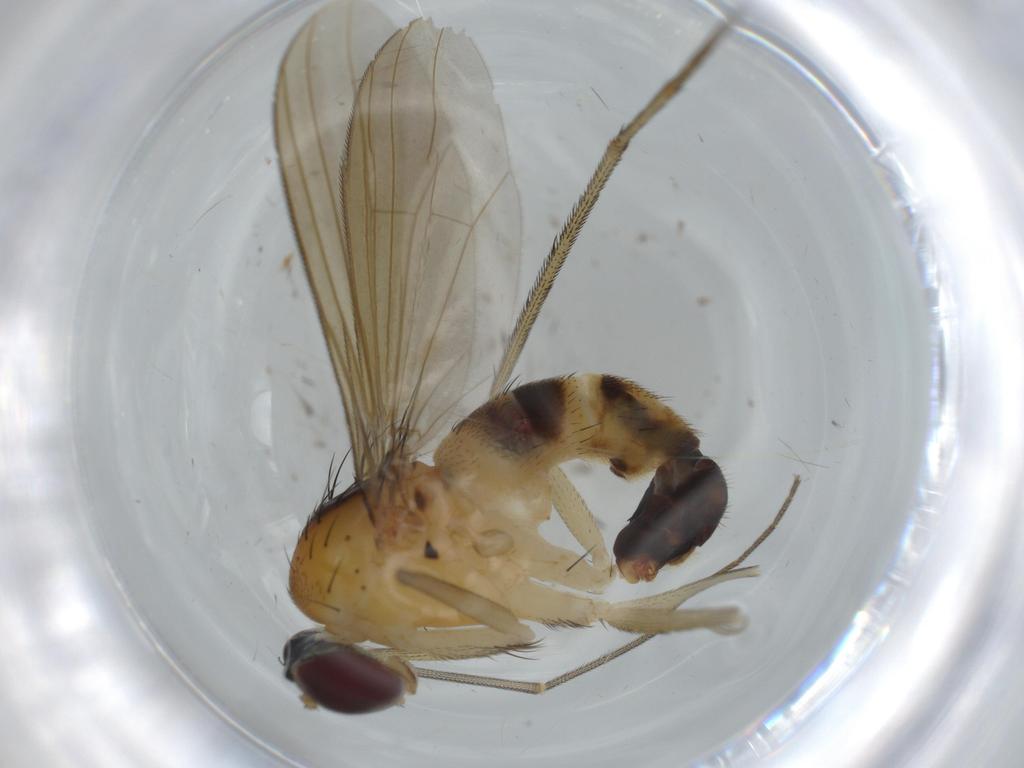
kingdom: Animalia
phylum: Arthropoda
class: Insecta
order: Diptera
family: Dolichopodidae
